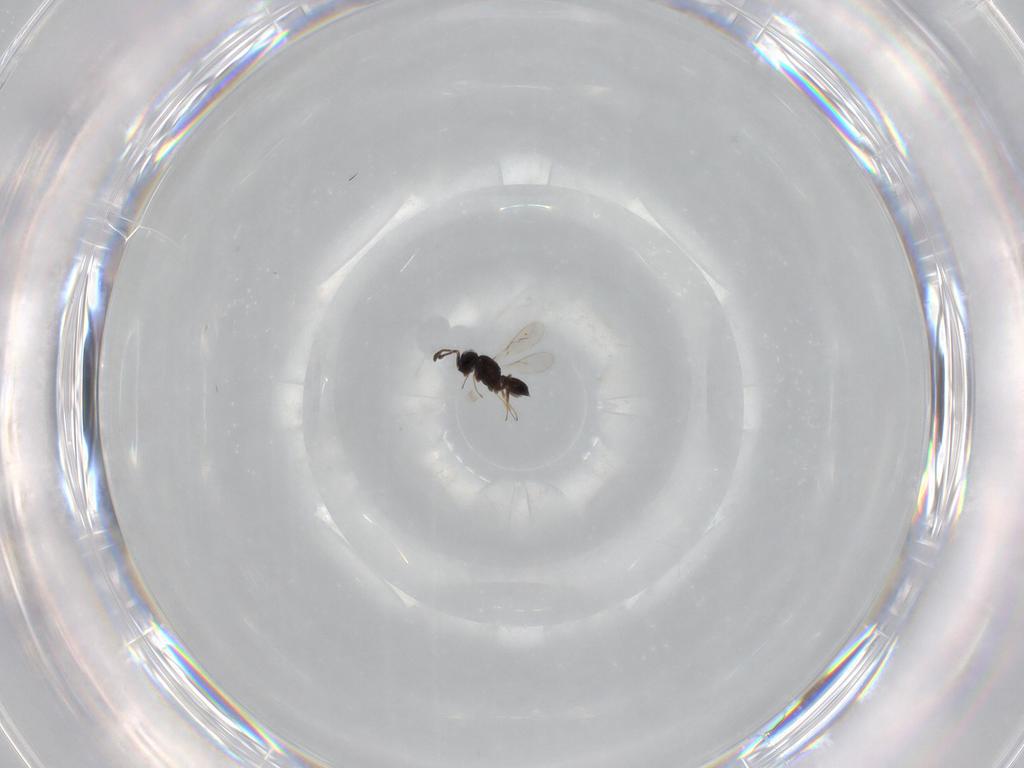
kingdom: Animalia
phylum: Arthropoda
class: Insecta
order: Hymenoptera
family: Scelionidae
